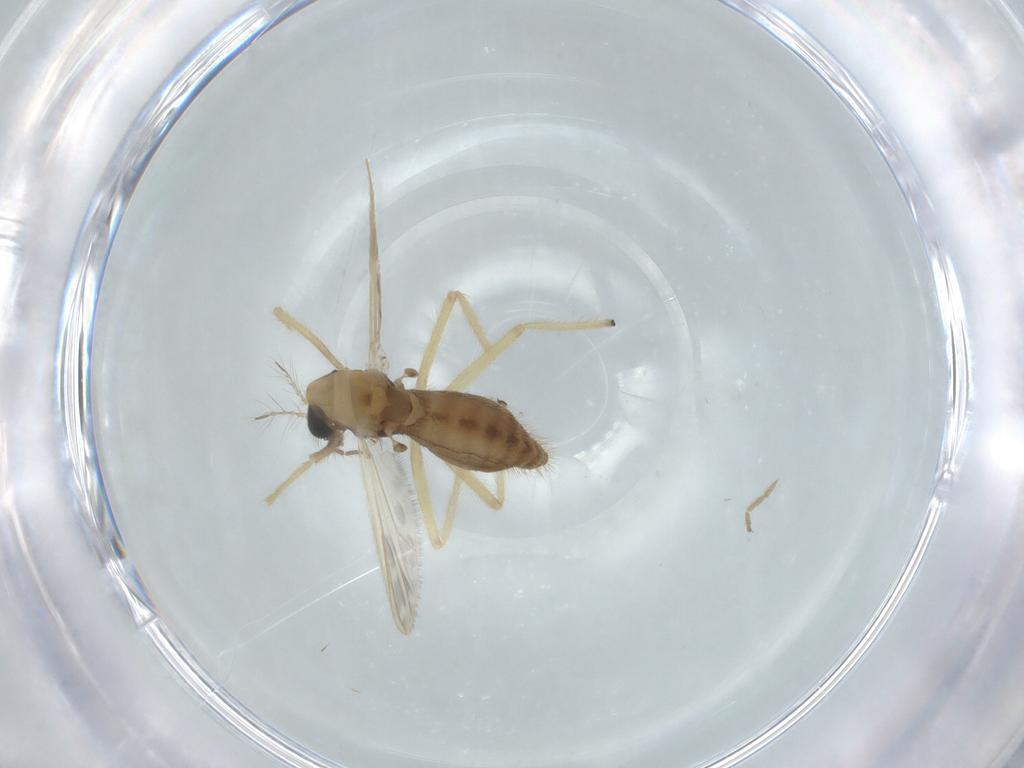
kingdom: Animalia
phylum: Arthropoda
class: Insecta
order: Diptera
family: Chironomidae
